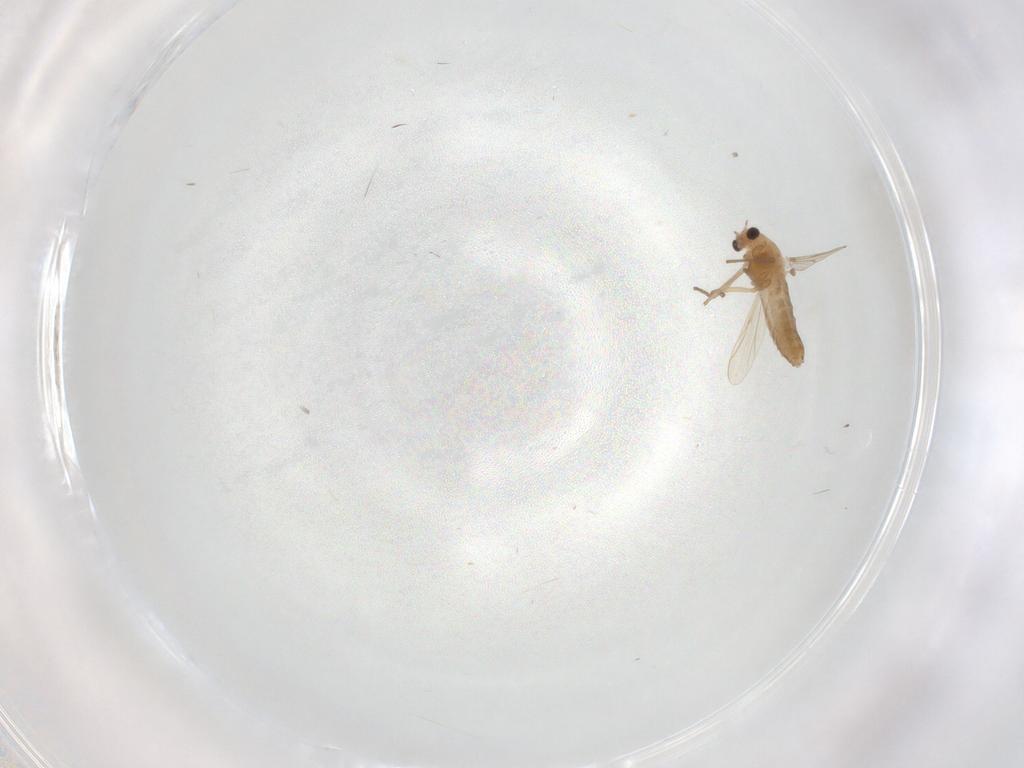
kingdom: Animalia
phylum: Arthropoda
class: Insecta
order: Diptera
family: Chironomidae
